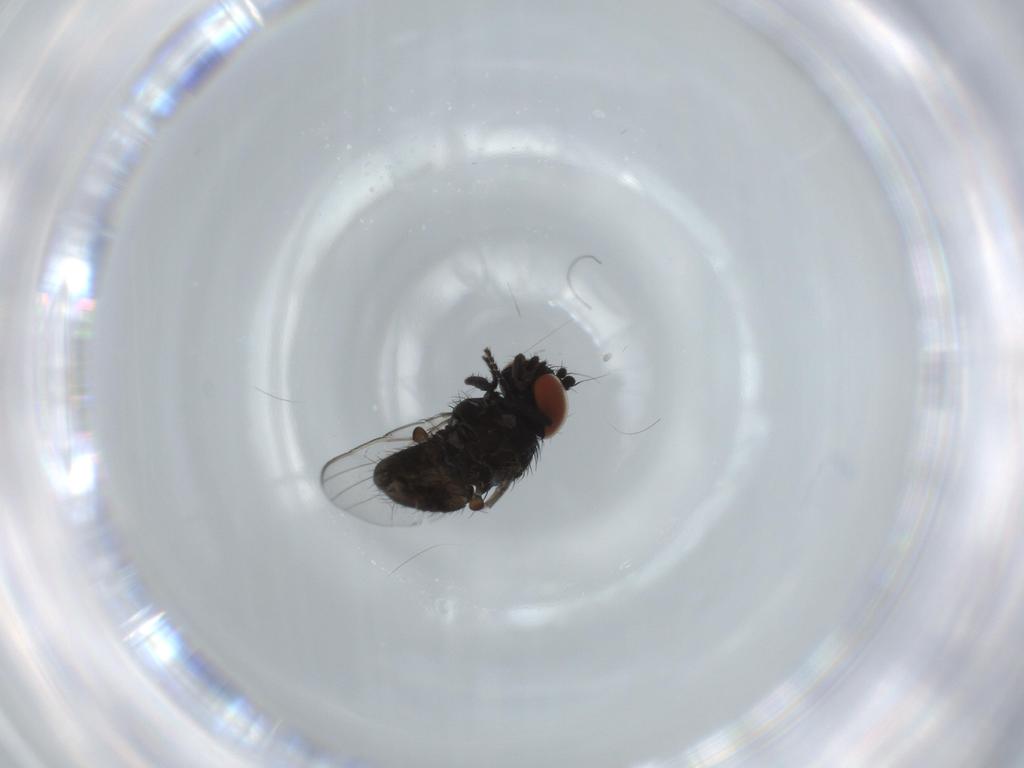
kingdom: Animalia
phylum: Arthropoda
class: Insecta
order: Diptera
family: Milichiidae
